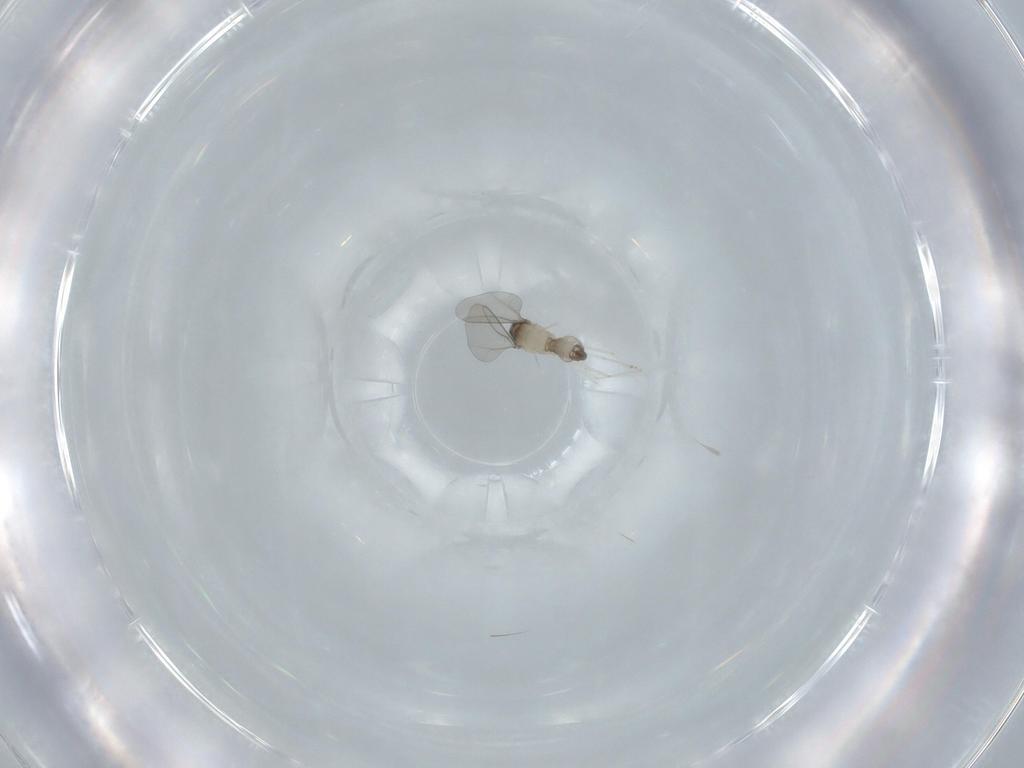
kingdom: Animalia
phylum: Arthropoda
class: Insecta
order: Diptera
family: Cecidomyiidae
